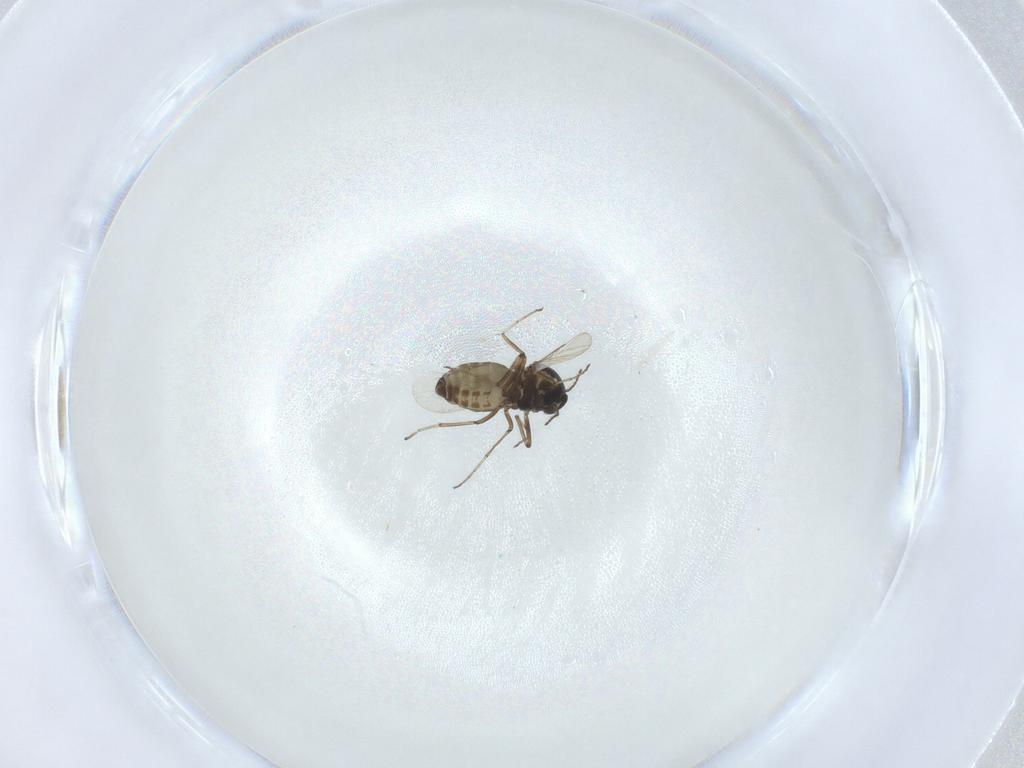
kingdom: Animalia
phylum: Arthropoda
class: Insecta
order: Diptera
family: Ceratopogonidae
